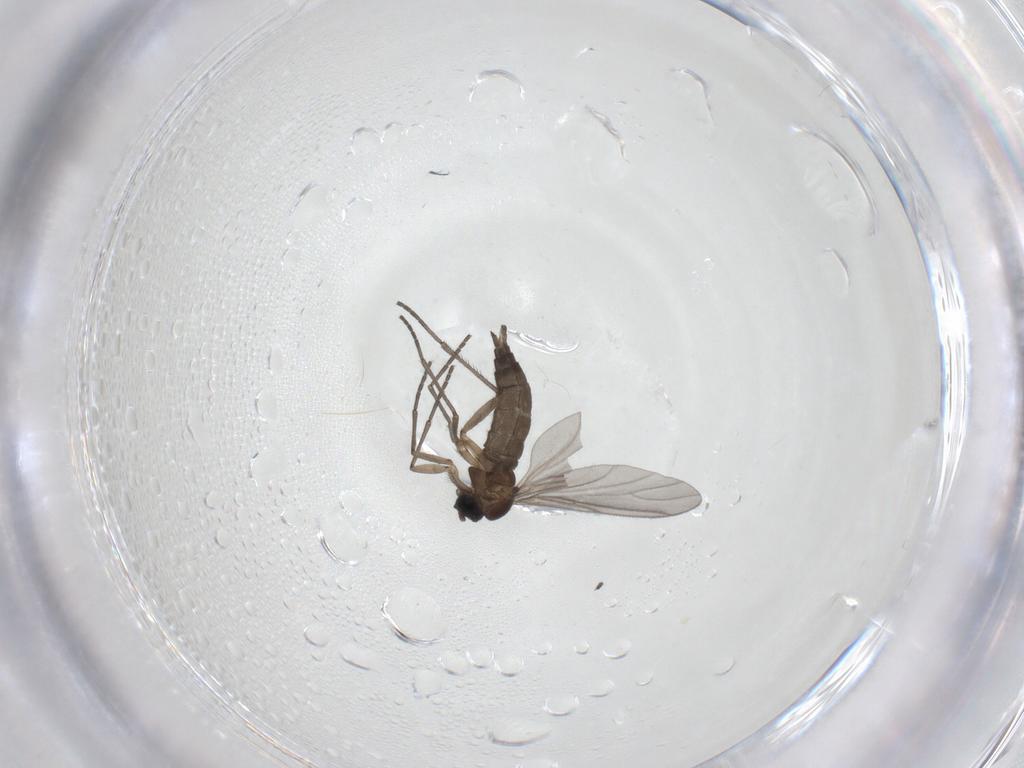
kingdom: Animalia
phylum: Arthropoda
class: Insecta
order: Diptera
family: Sciaridae
